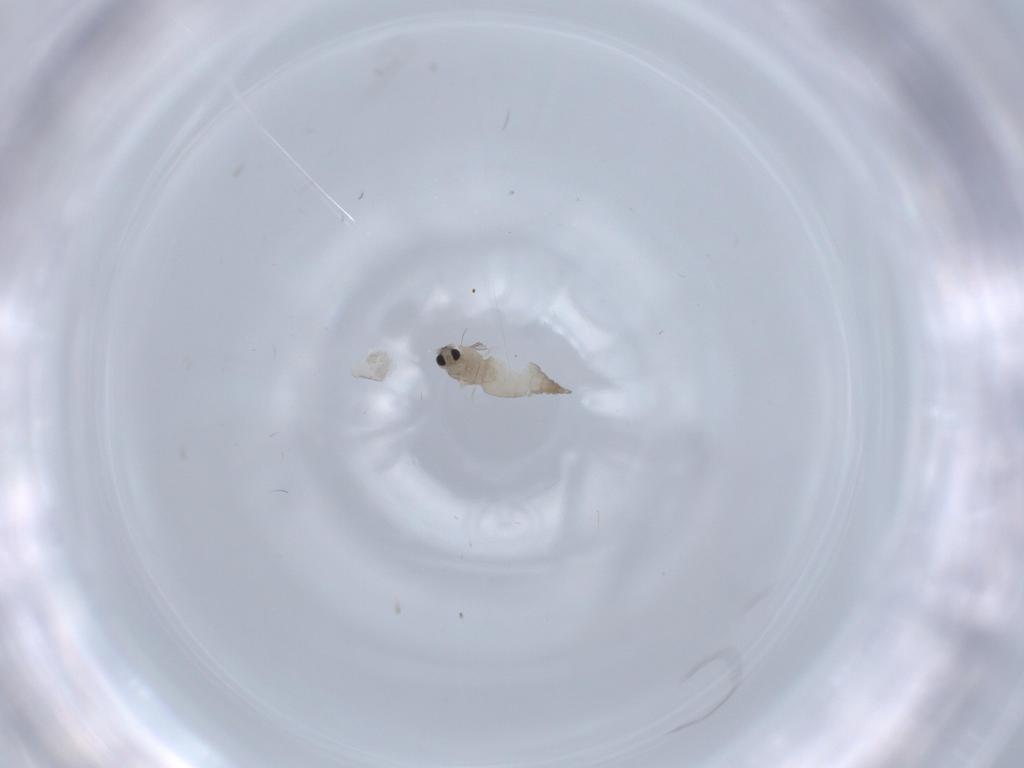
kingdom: Animalia
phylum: Arthropoda
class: Insecta
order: Diptera
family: Cecidomyiidae
